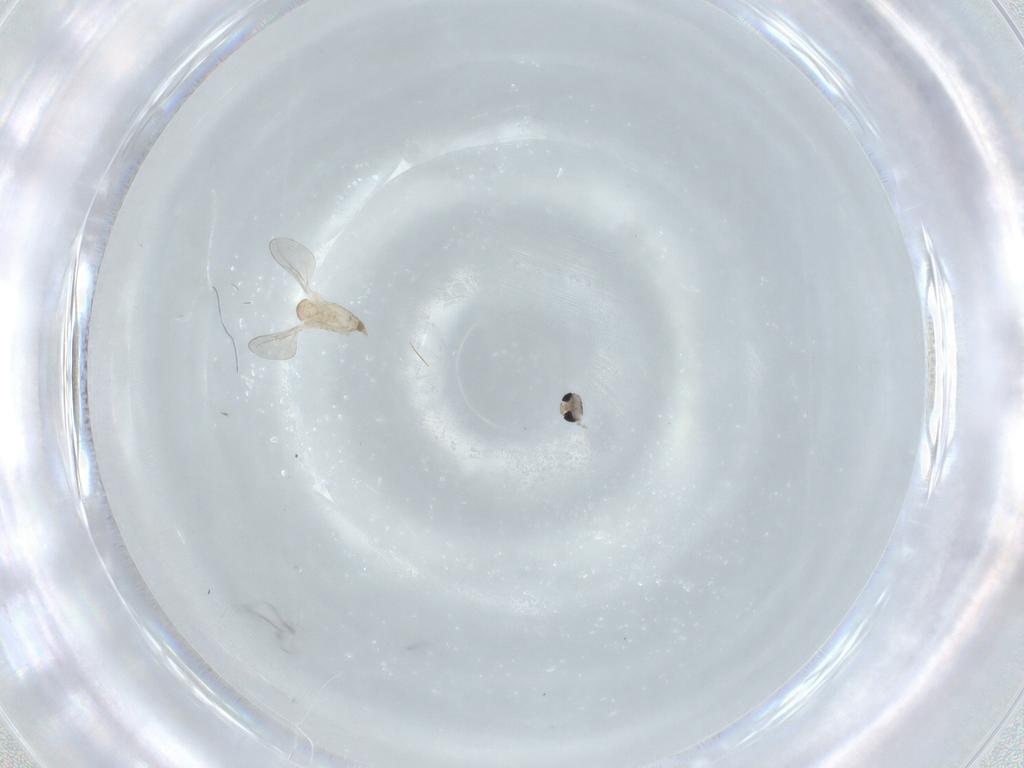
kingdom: Animalia
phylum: Arthropoda
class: Insecta
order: Diptera
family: Cecidomyiidae
